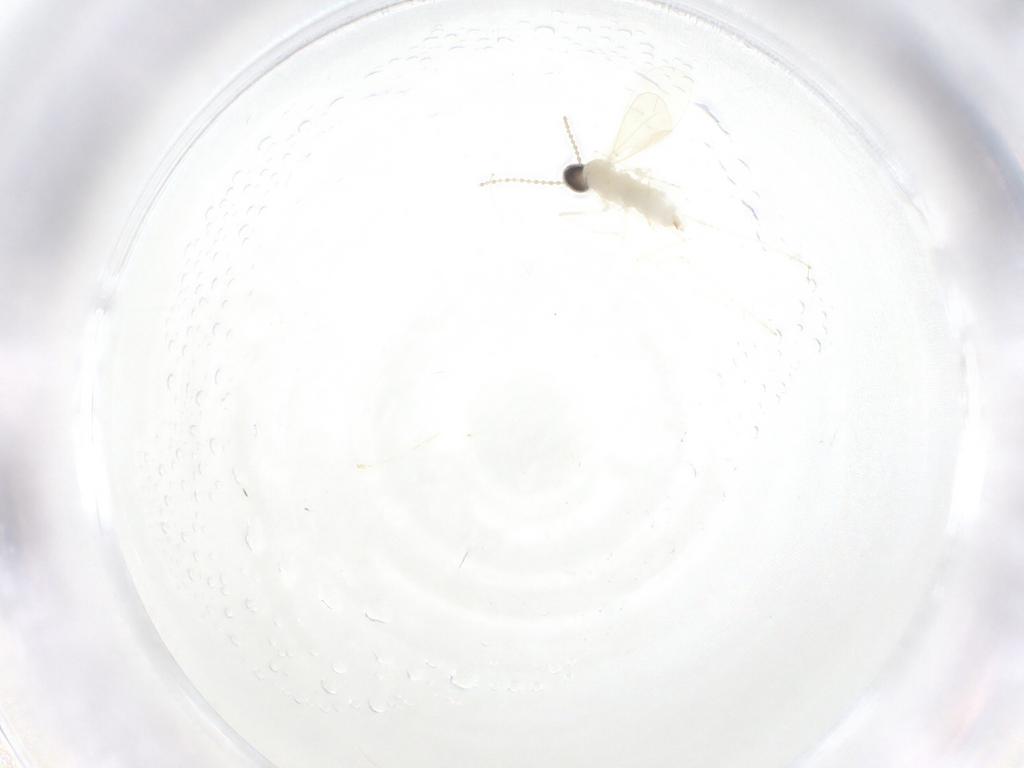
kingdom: Animalia
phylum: Arthropoda
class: Insecta
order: Diptera
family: Cecidomyiidae
